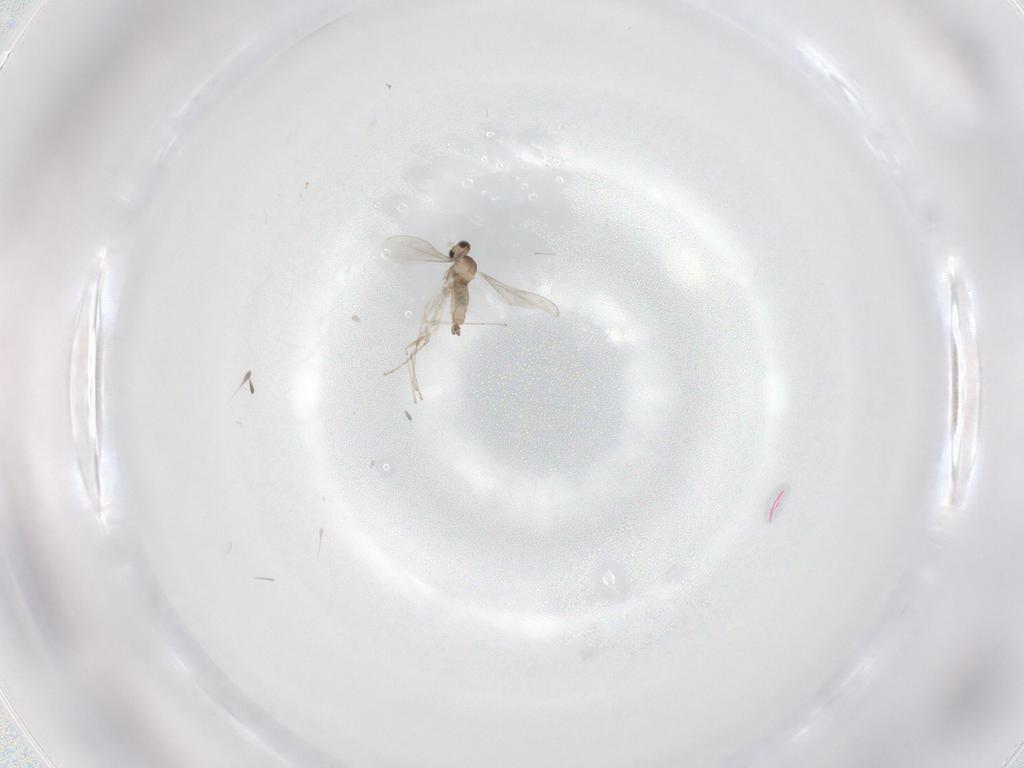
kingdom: Animalia
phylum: Arthropoda
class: Insecta
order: Diptera
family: Cecidomyiidae
